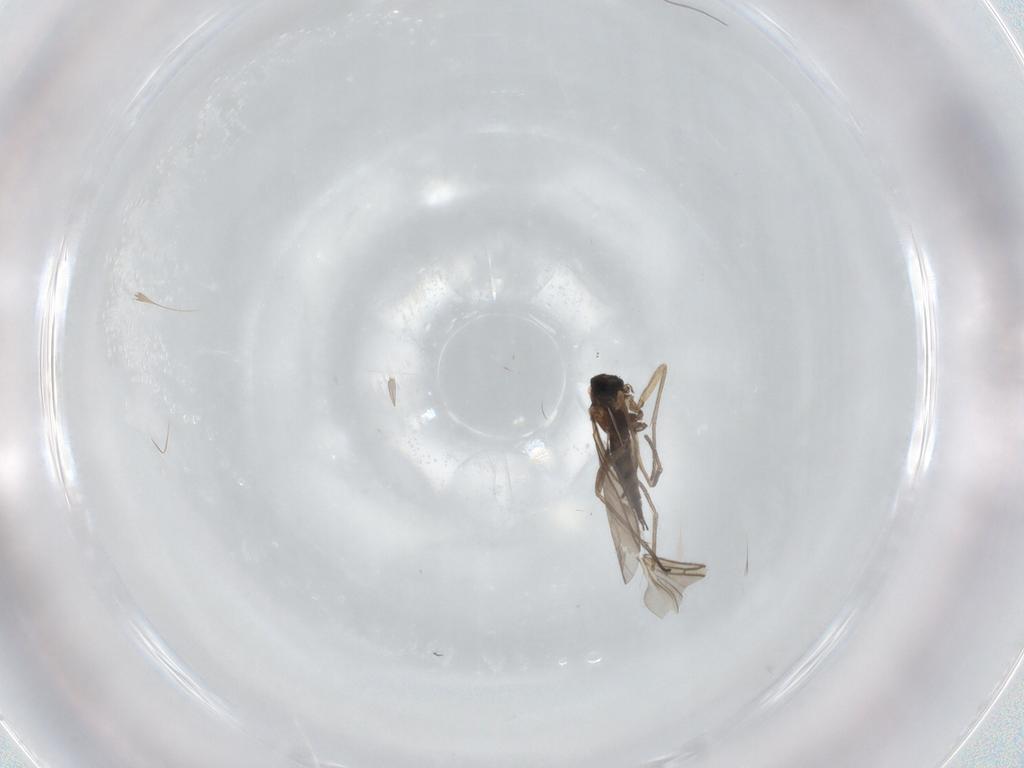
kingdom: Animalia
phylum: Arthropoda
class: Insecta
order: Diptera
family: Sciaridae
